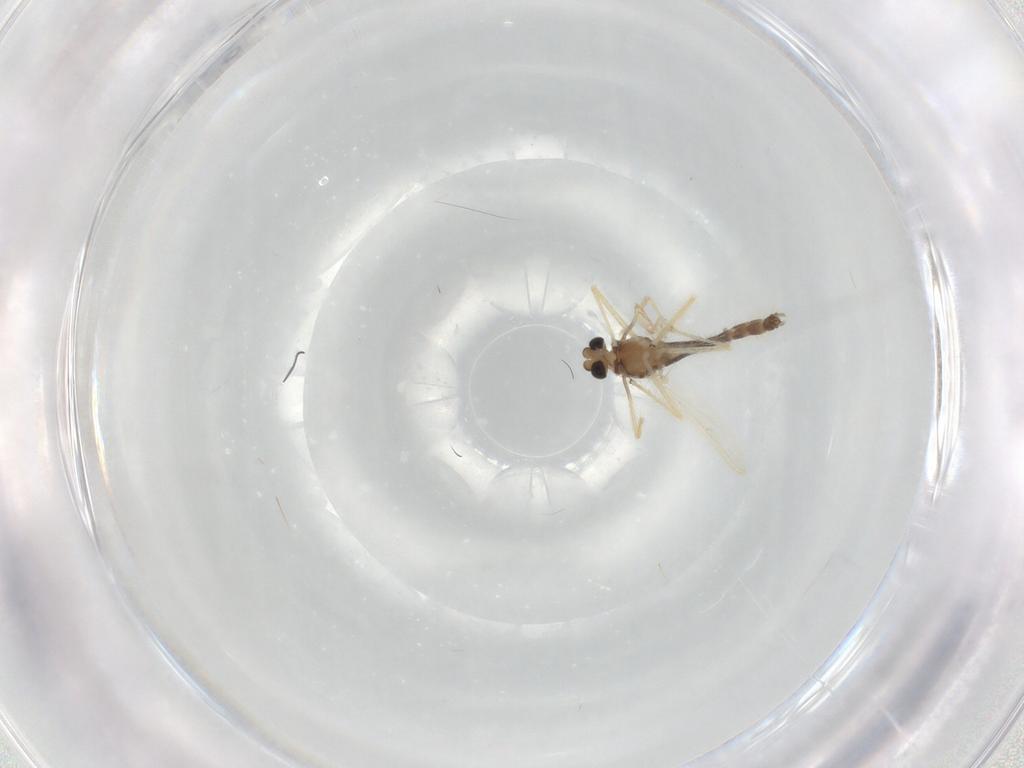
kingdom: Animalia
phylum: Arthropoda
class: Insecta
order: Diptera
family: Chironomidae
